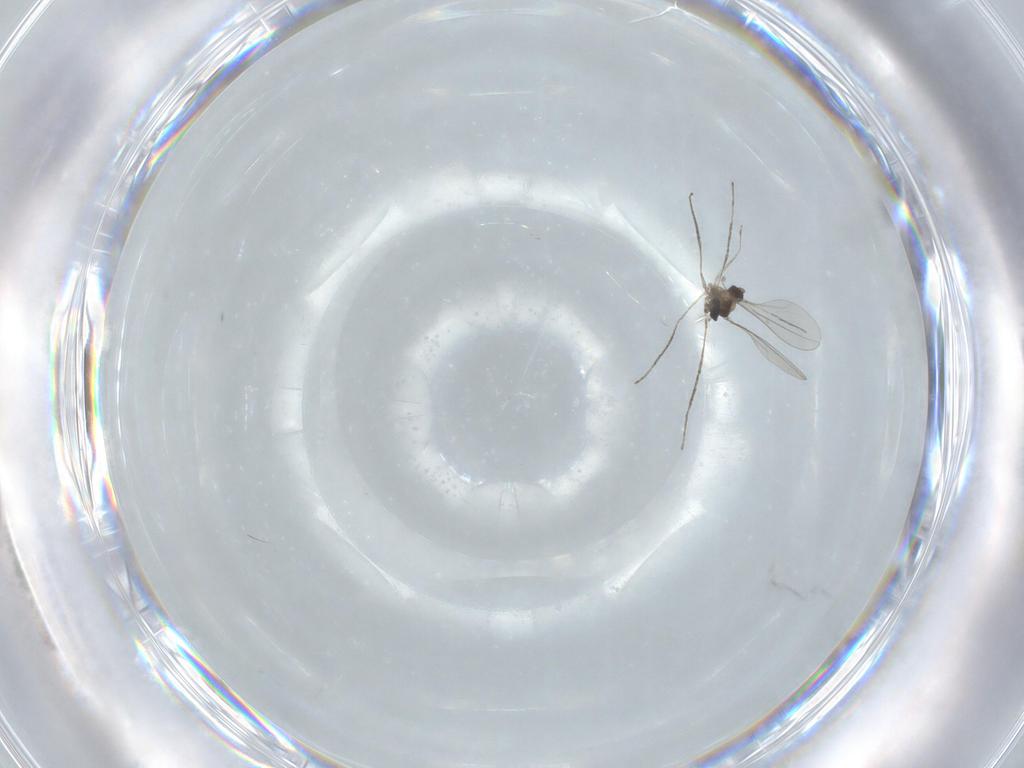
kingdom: Animalia
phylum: Arthropoda
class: Insecta
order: Diptera
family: Cecidomyiidae
